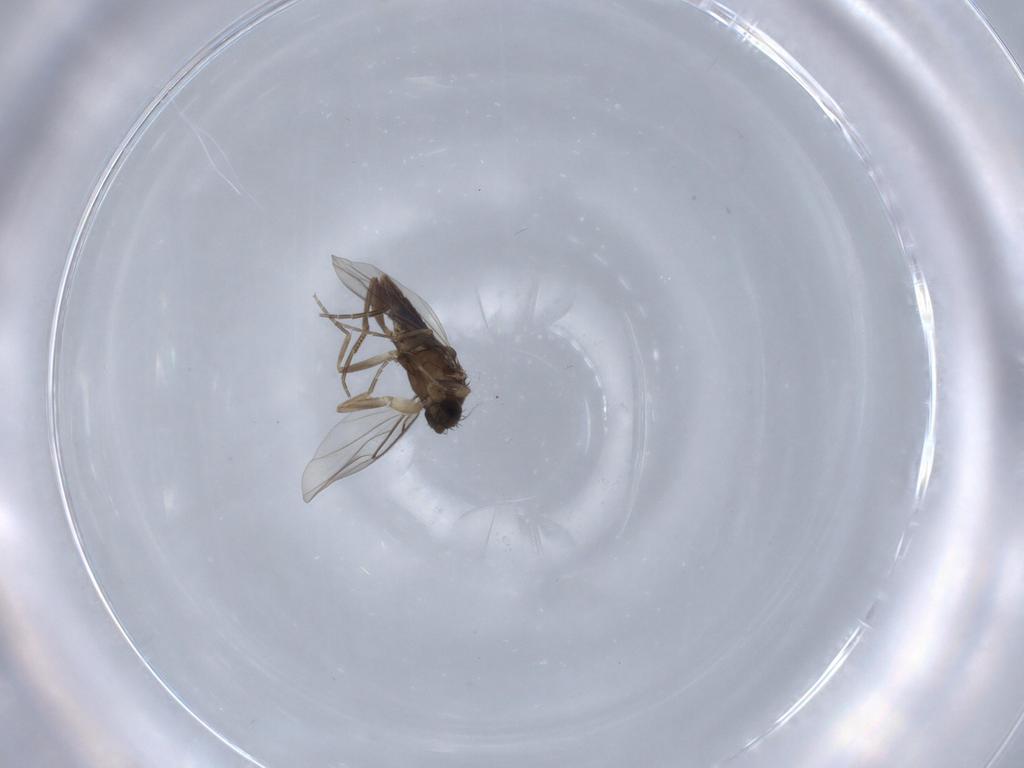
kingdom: Animalia
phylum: Arthropoda
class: Insecta
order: Diptera
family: Phoridae
